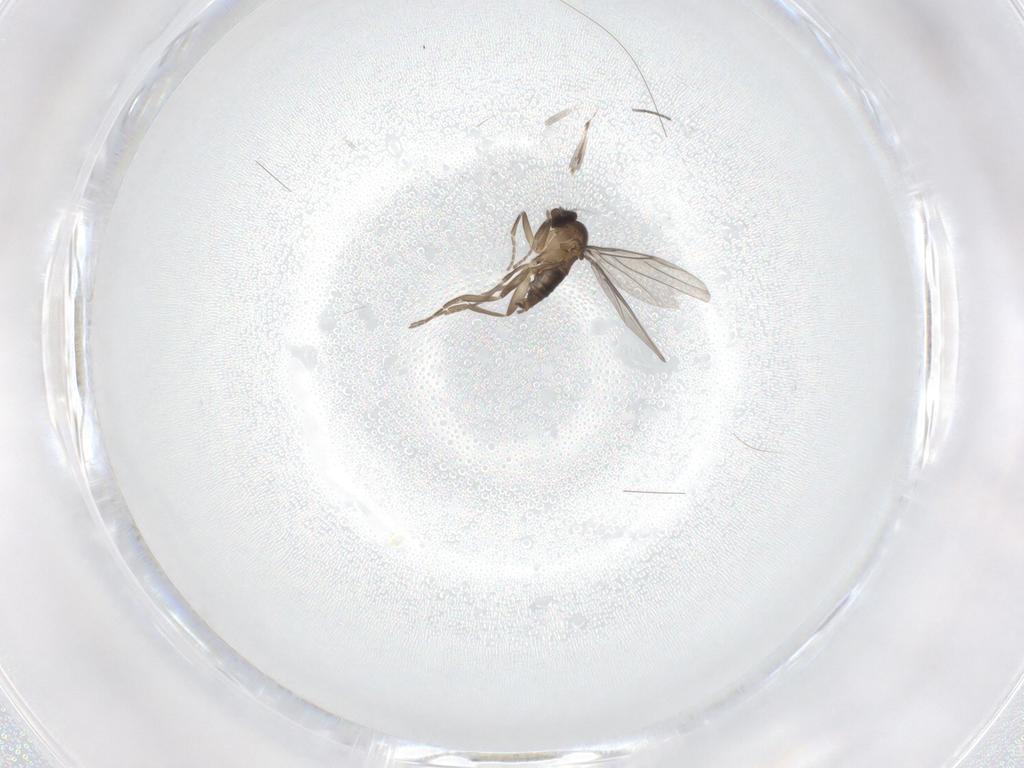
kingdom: Animalia
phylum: Arthropoda
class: Insecta
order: Diptera
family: Sciaridae
